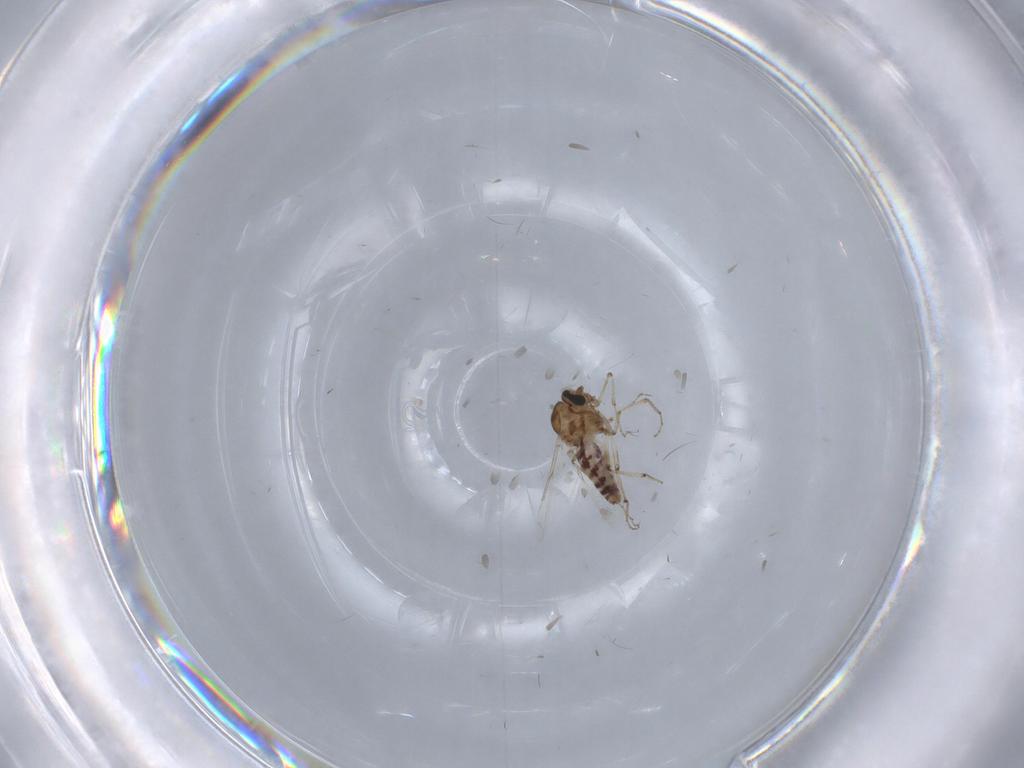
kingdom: Animalia
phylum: Arthropoda
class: Insecta
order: Diptera
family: Ceratopogonidae
